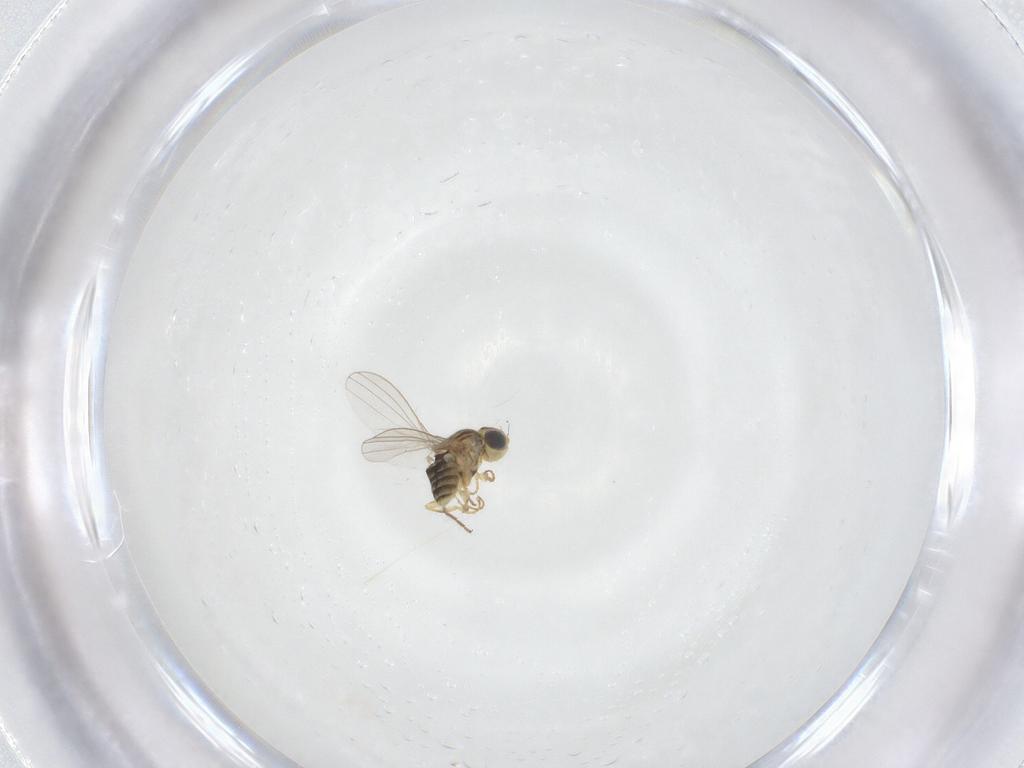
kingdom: Animalia
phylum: Arthropoda
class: Insecta
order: Diptera
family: Chyromyidae
